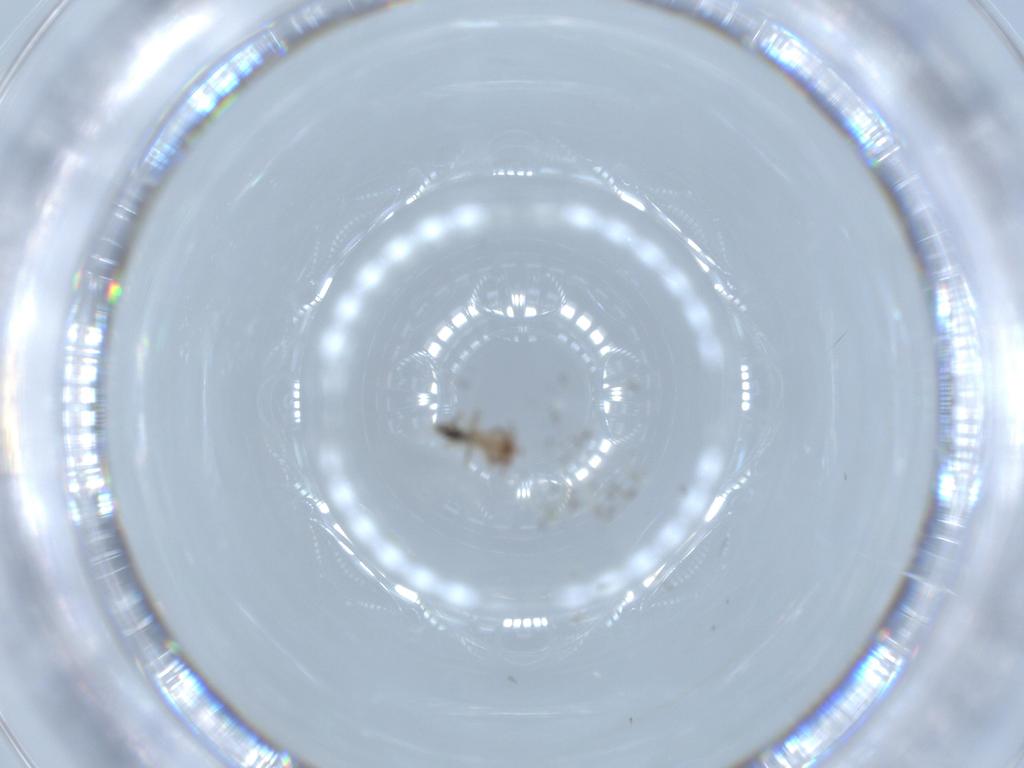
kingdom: Animalia
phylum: Arthropoda
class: Insecta
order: Psocodea
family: Lepidopsocidae
